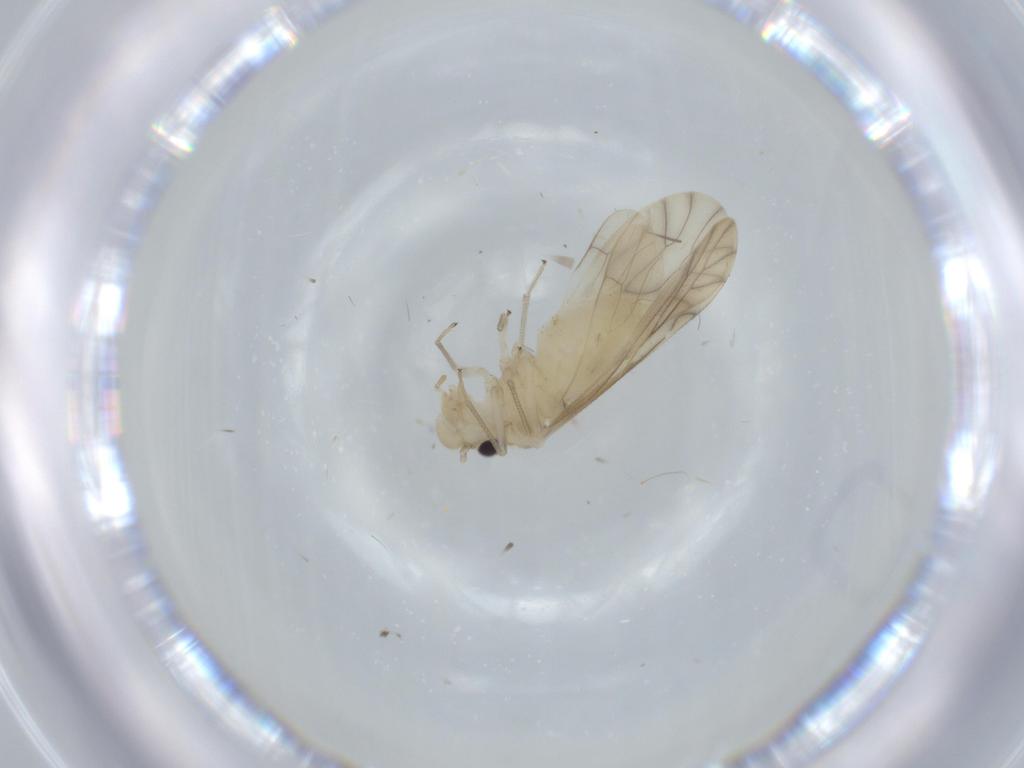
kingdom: Animalia
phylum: Arthropoda
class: Insecta
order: Psocodea
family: Caeciliusidae
